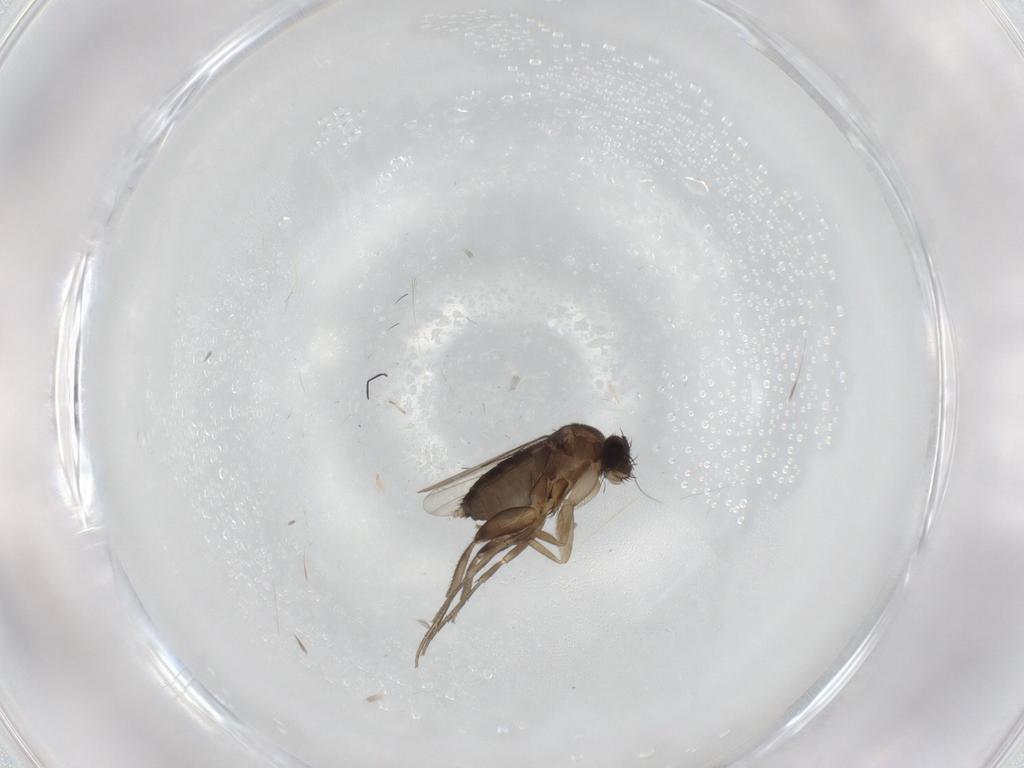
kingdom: Animalia
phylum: Arthropoda
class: Insecta
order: Diptera
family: Phoridae
